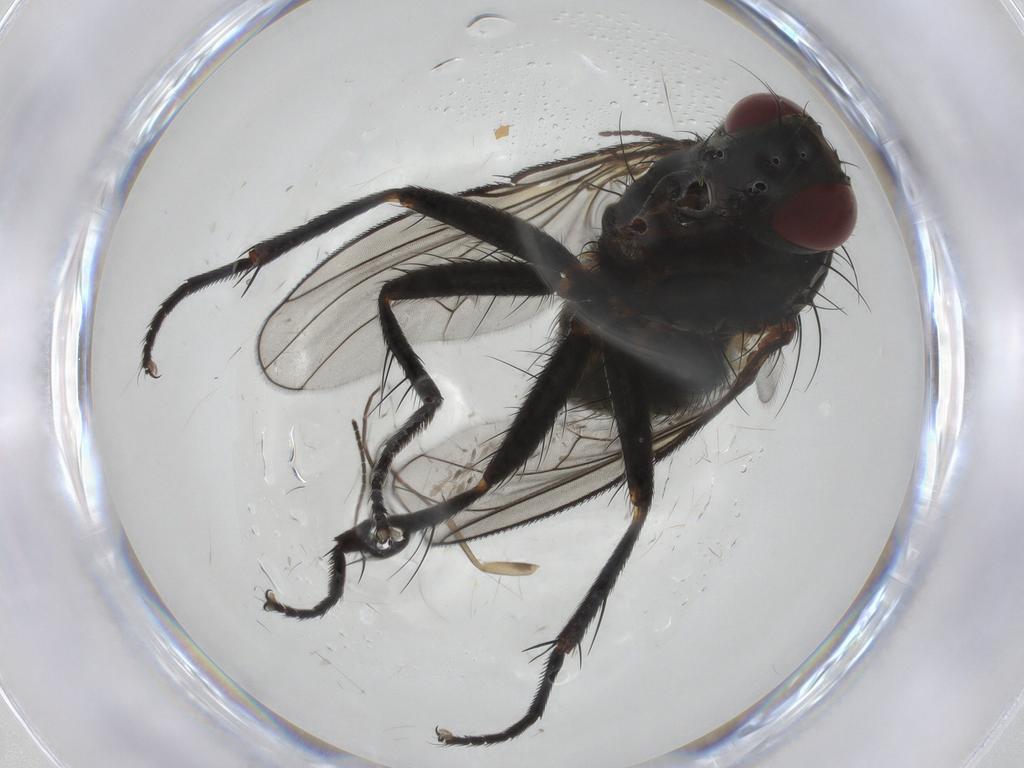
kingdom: Animalia
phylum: Arthropoda
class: Insecta
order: Diptera
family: Muscidae
